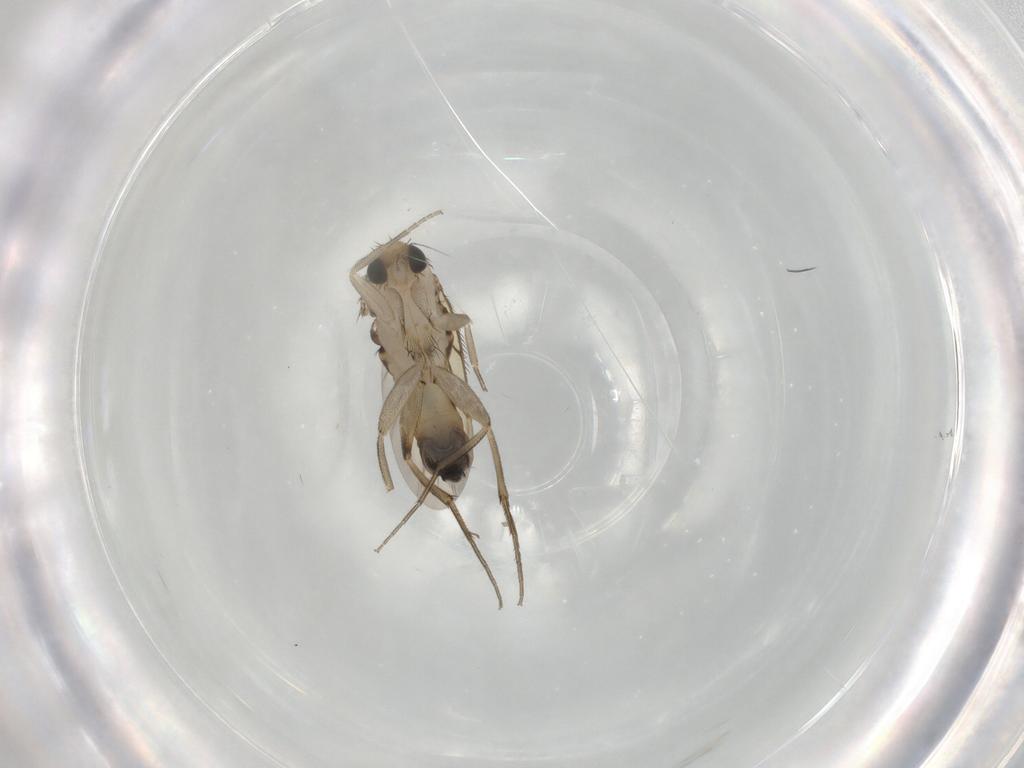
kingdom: Animalia
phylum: Arthropoda
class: Insecta
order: Diptera
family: Phoridae
